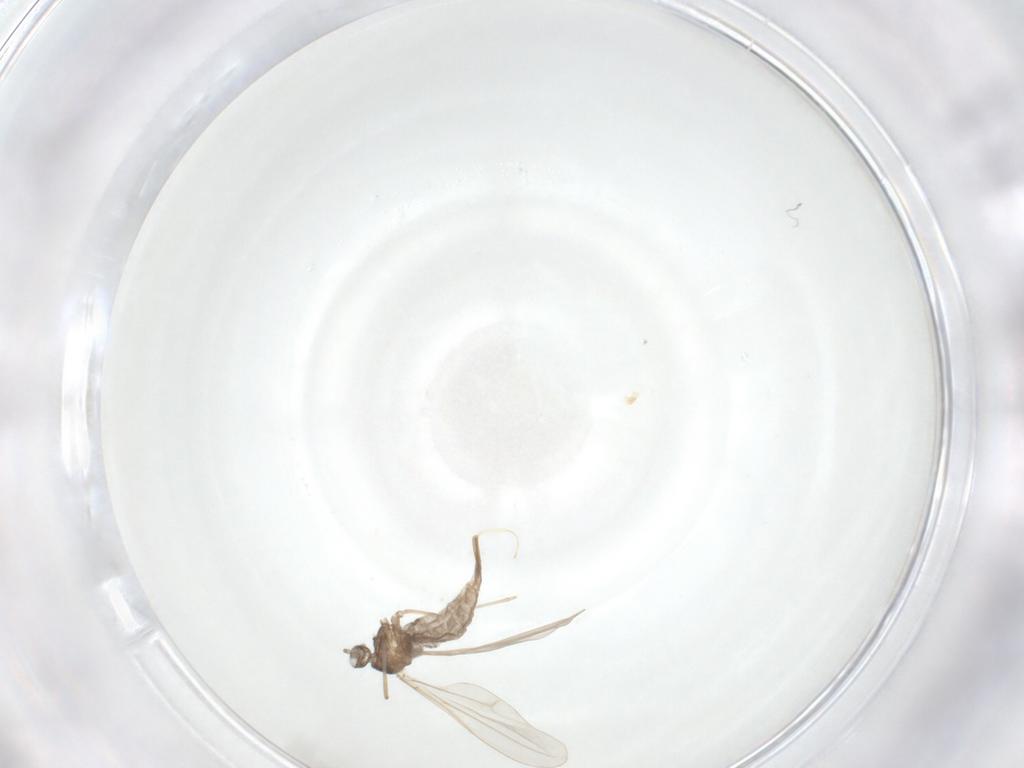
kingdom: Animalia
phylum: Arthropoda
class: Insecta
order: Diptera
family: Cecidomyiidae
